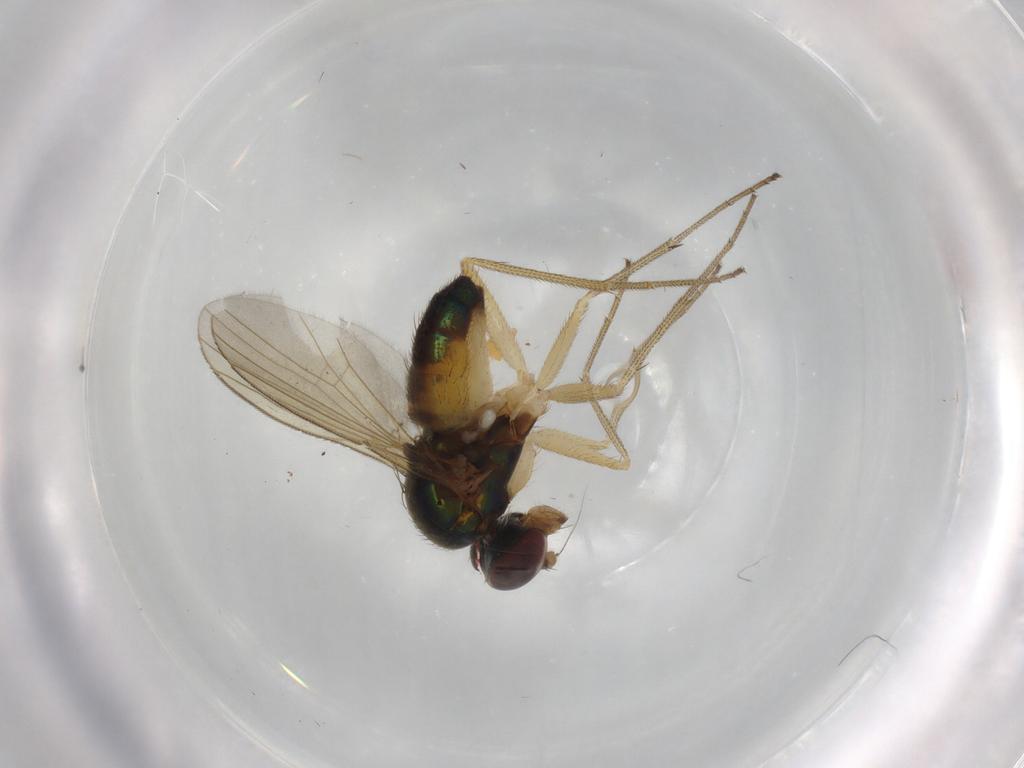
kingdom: Animalia
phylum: Arthropoda
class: Insecta
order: Diptera
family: Dolichopodidae
